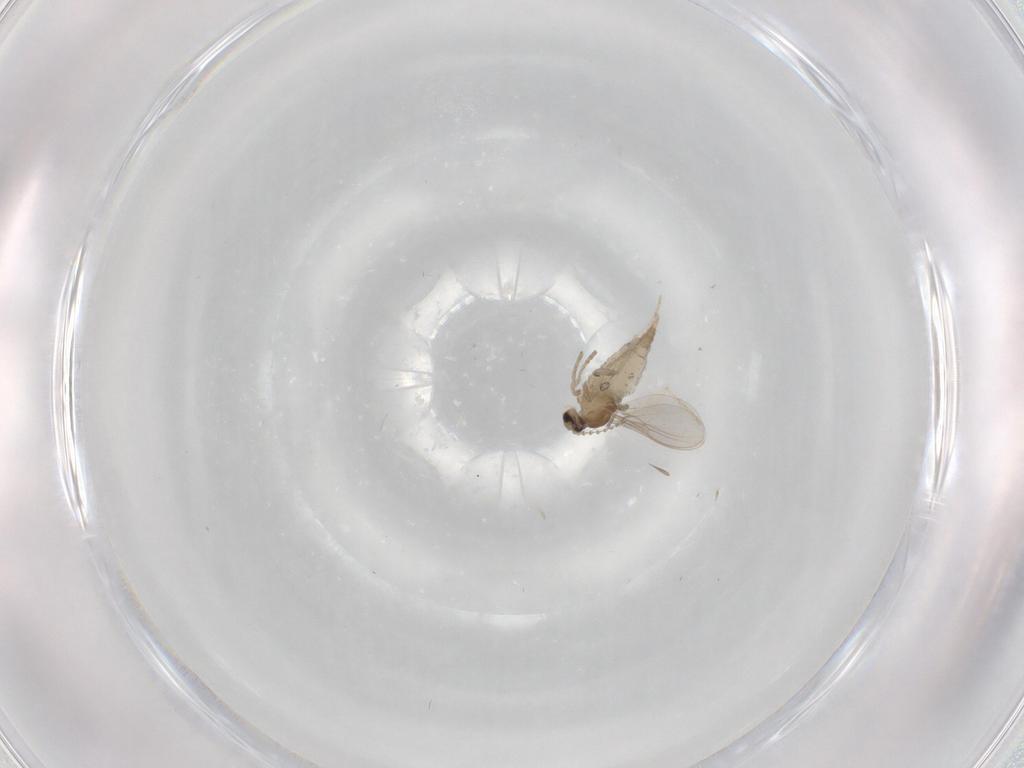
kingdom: Animalia
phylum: Arthropoda
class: Insecta
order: Diptera
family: Cecidomyiidae
